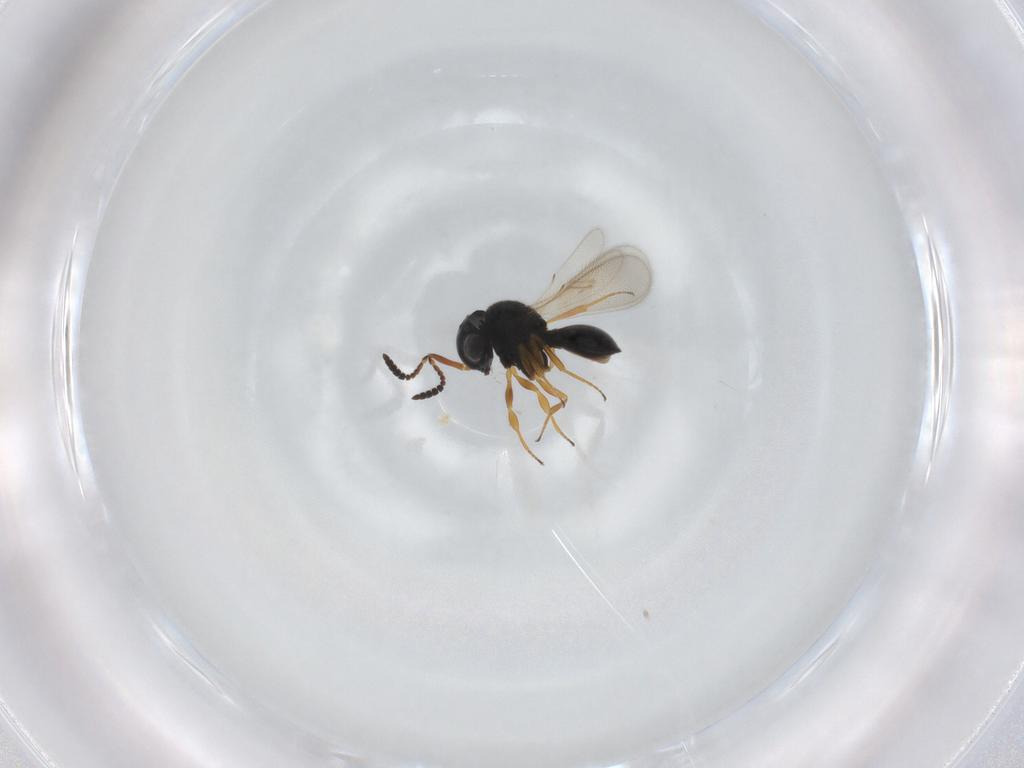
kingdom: Animalia
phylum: Arthropoda
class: Insecta
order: Hymenoptera
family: Scelionidae
